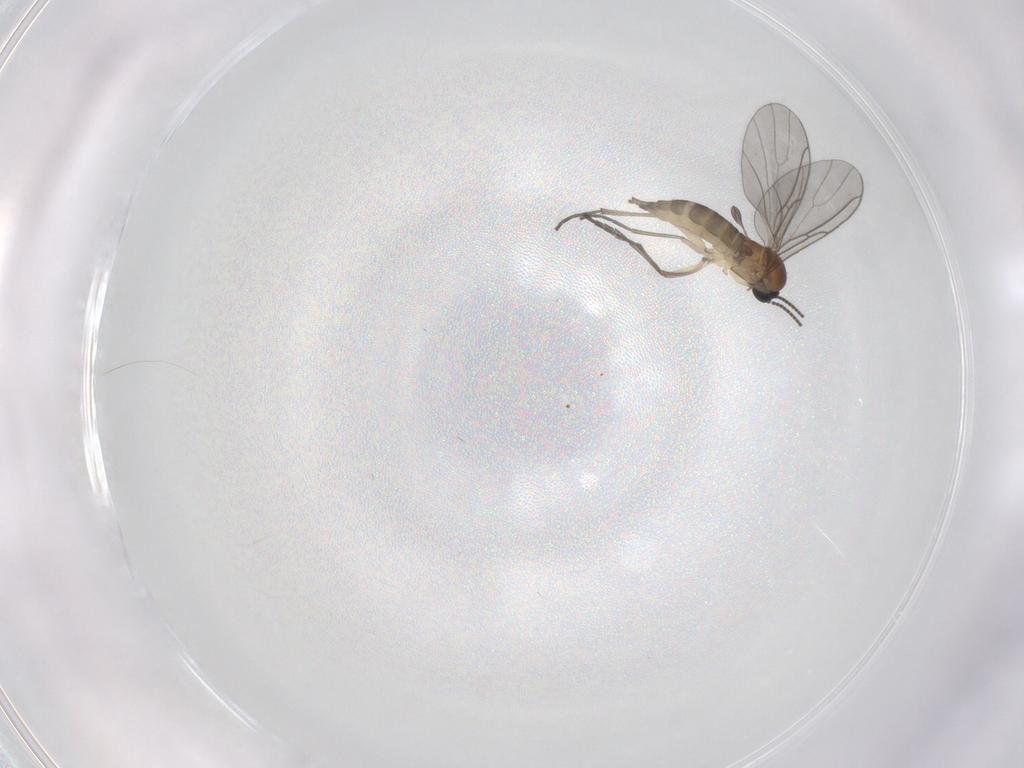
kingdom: Animalia
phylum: Arthropoda
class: Insecta
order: Diptera
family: Sciaridae
